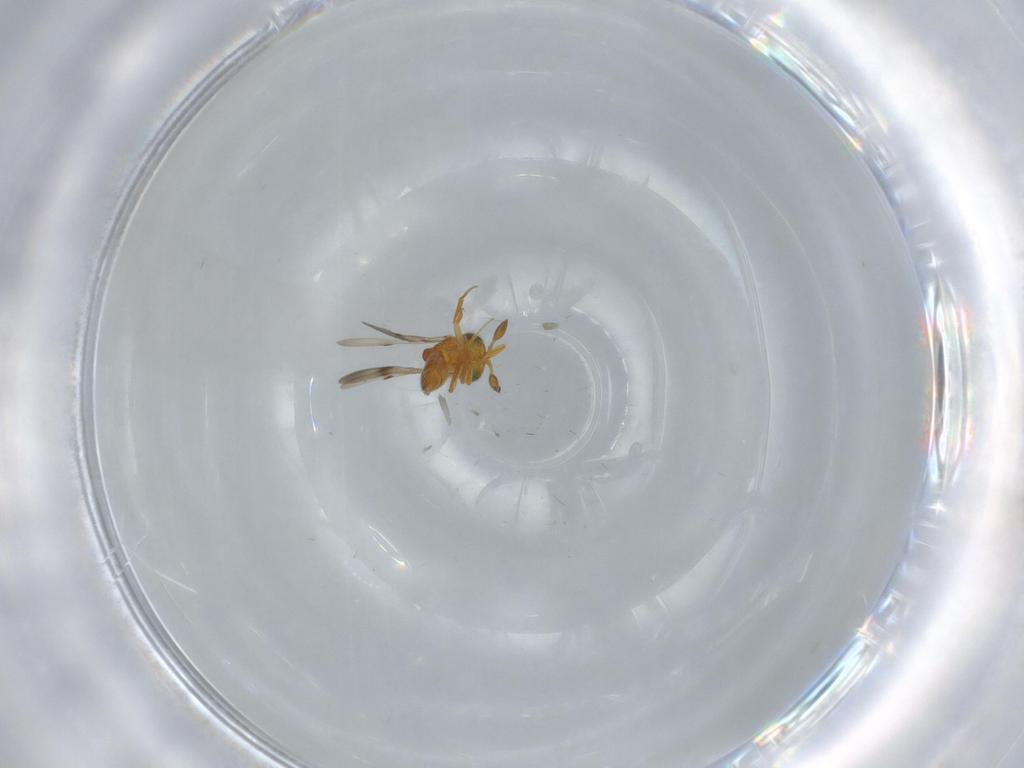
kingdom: Animalia
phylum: Arthropoda
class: Insecta
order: Hymenoptera
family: Scelionidae
